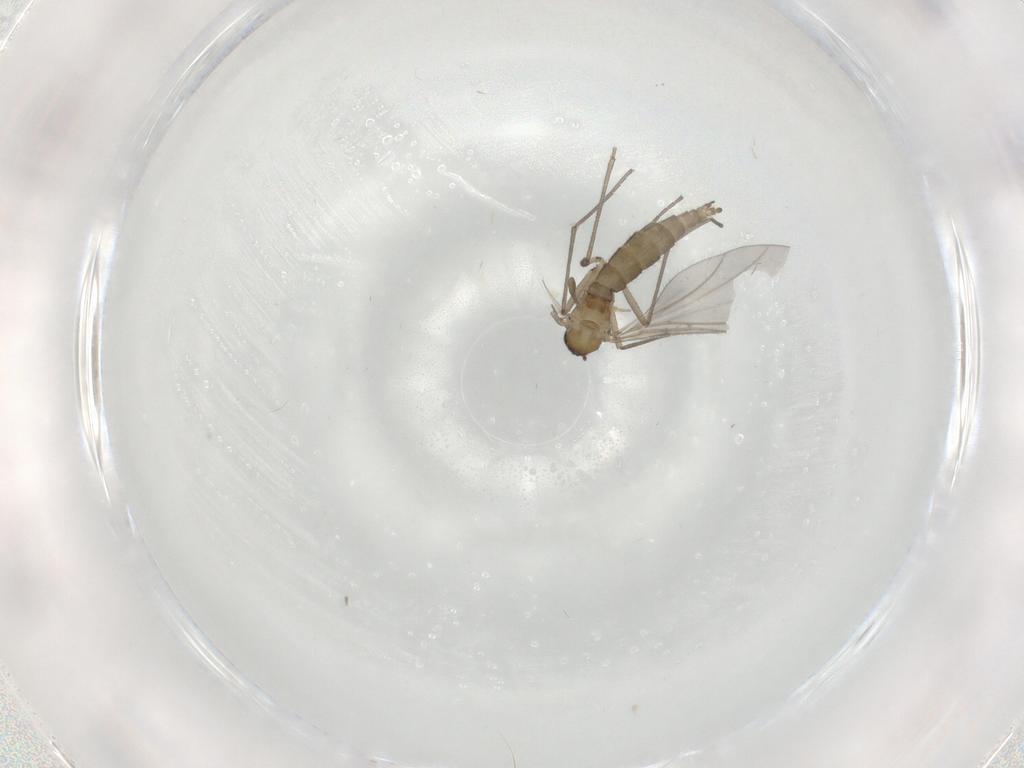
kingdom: Animalia
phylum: Arthropoda
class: Insecta
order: Diptera
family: Sciaridae
